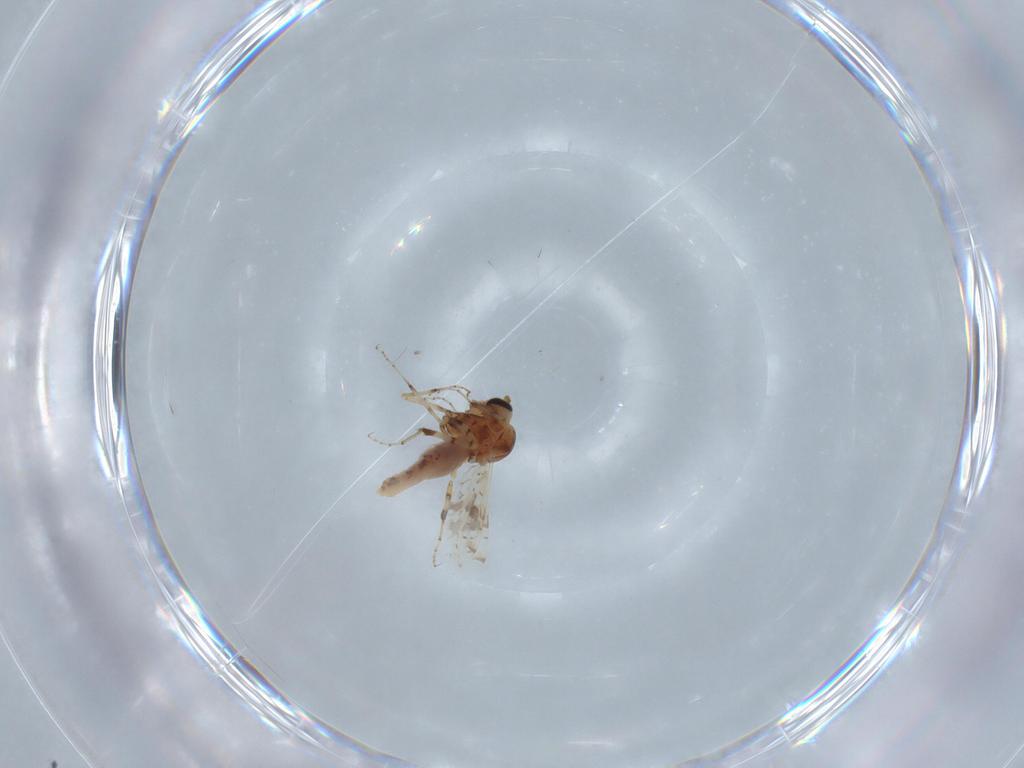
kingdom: Animalia
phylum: Arthropoda
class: Insecta
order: Diptera
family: Ceratopogonidae
